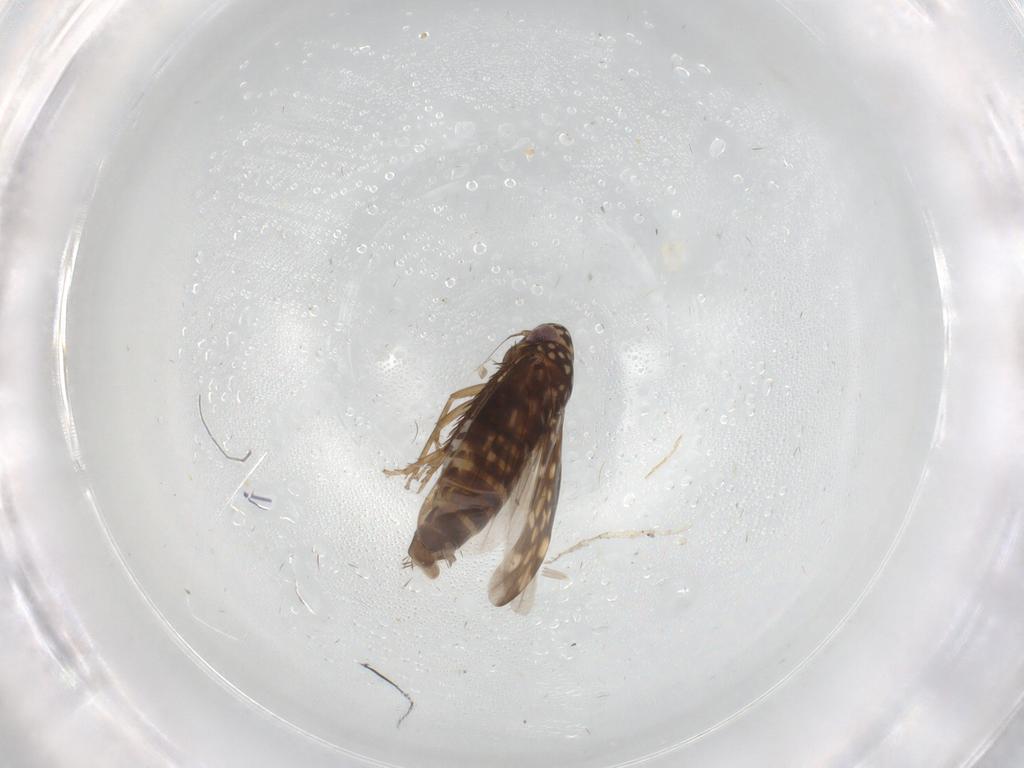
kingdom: Animalia
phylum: Arthropoda
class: Insecta
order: Hemiptera
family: Cicadellidae
